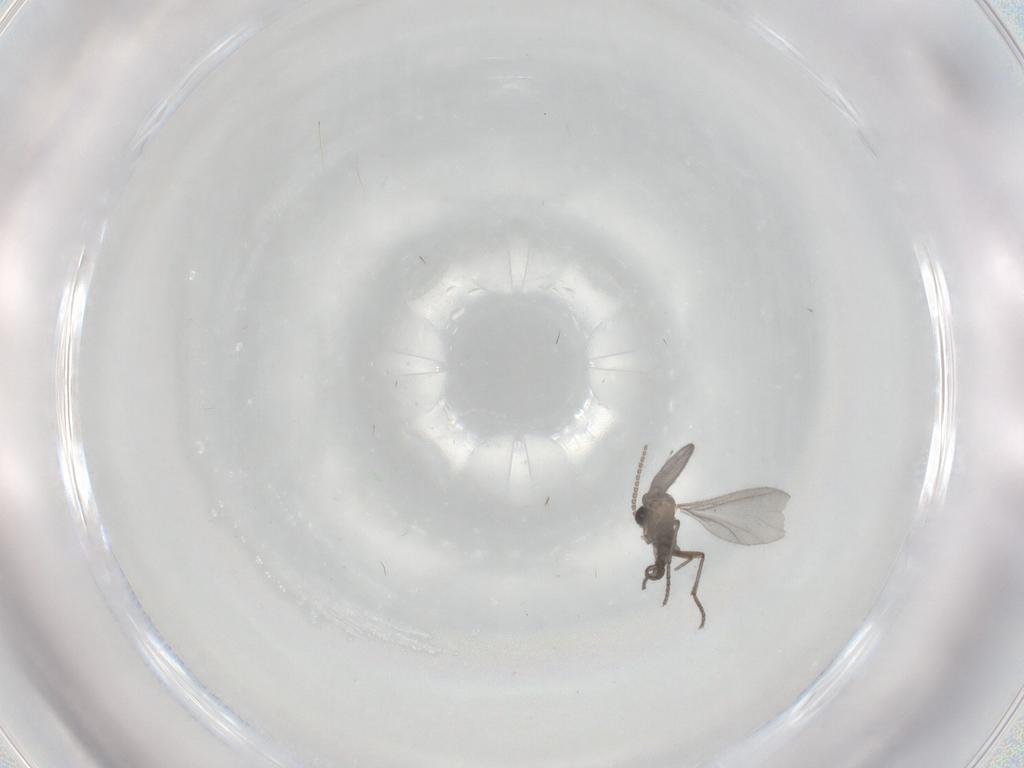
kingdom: Animalia
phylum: Arthropoda
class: Insecta
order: Diptera
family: Sciaridae
